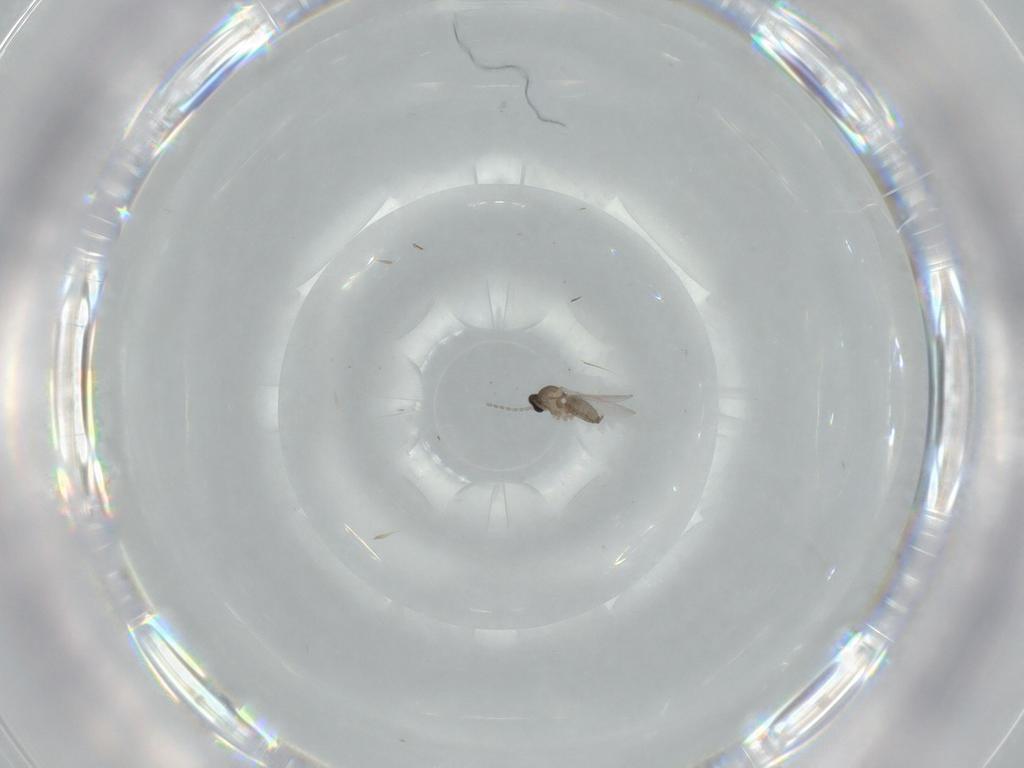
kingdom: Animalia
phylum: Arthropoda
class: Insecta
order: Diptera
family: Cecidomyiidae
